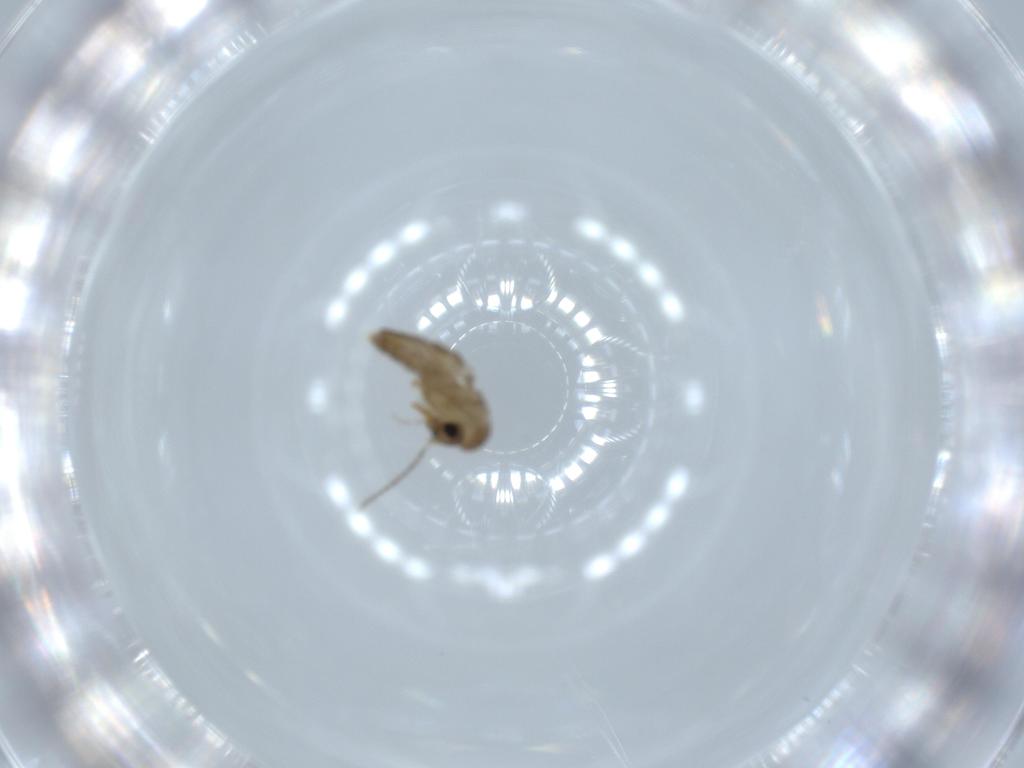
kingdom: Animalia
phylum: Arthropoda
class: Insecta
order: Diptera
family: Psychodidae
